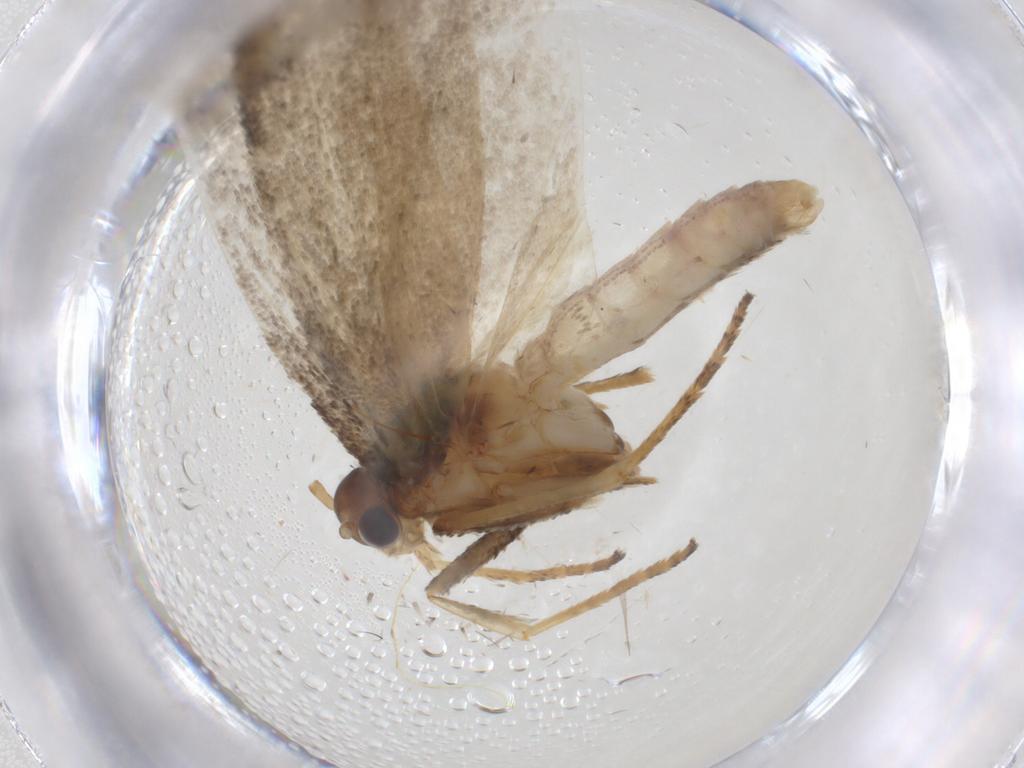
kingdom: Animalia
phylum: Arthropoda
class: Insecta
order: Lepidoptera
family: Depressariidae
